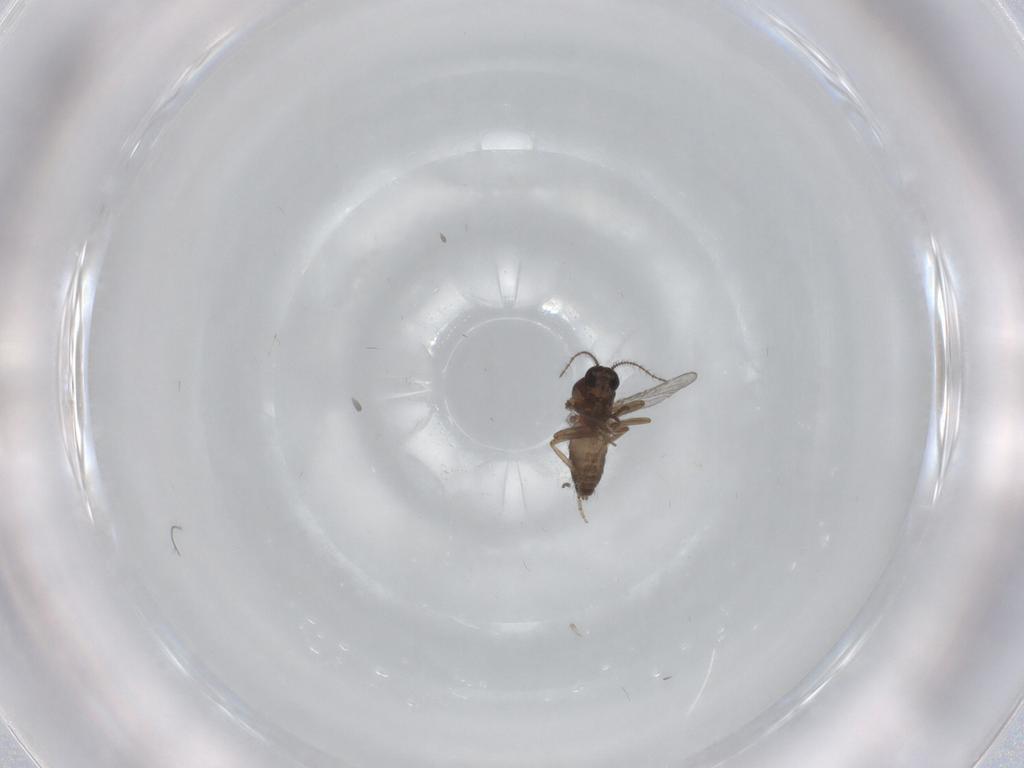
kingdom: Animalia
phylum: Arthropoda
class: Insecta
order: Diptera
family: Ceratopogonidae
